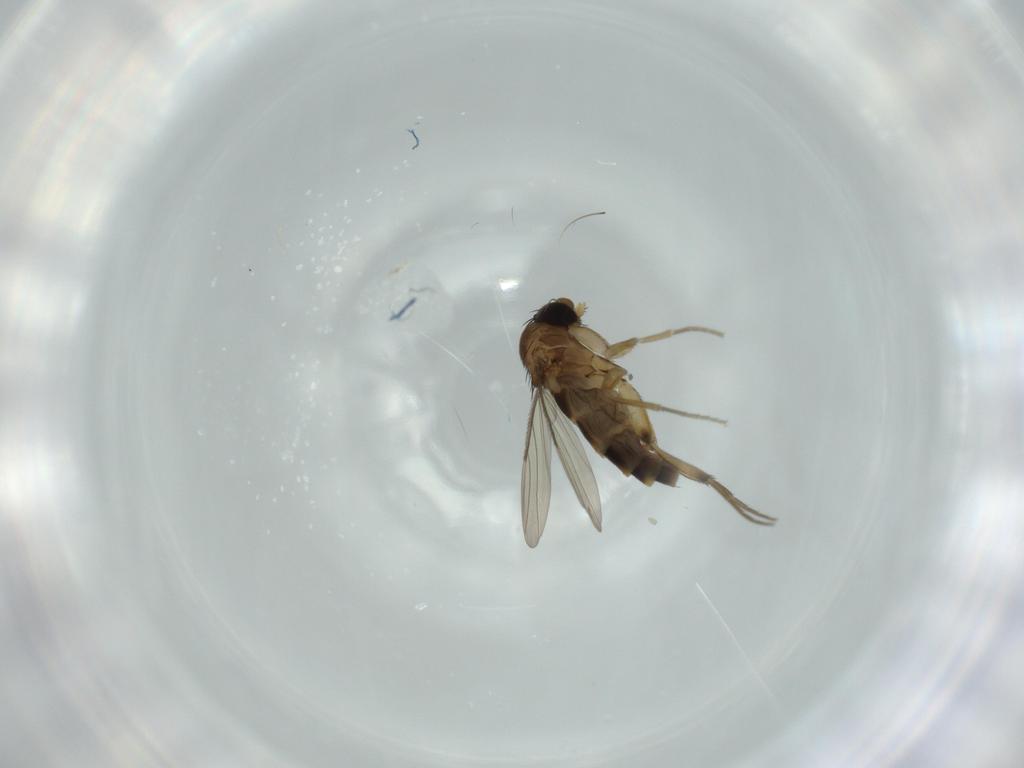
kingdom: Animalia
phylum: Arthropoda
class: Insecta
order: Diptera
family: Phoridae
